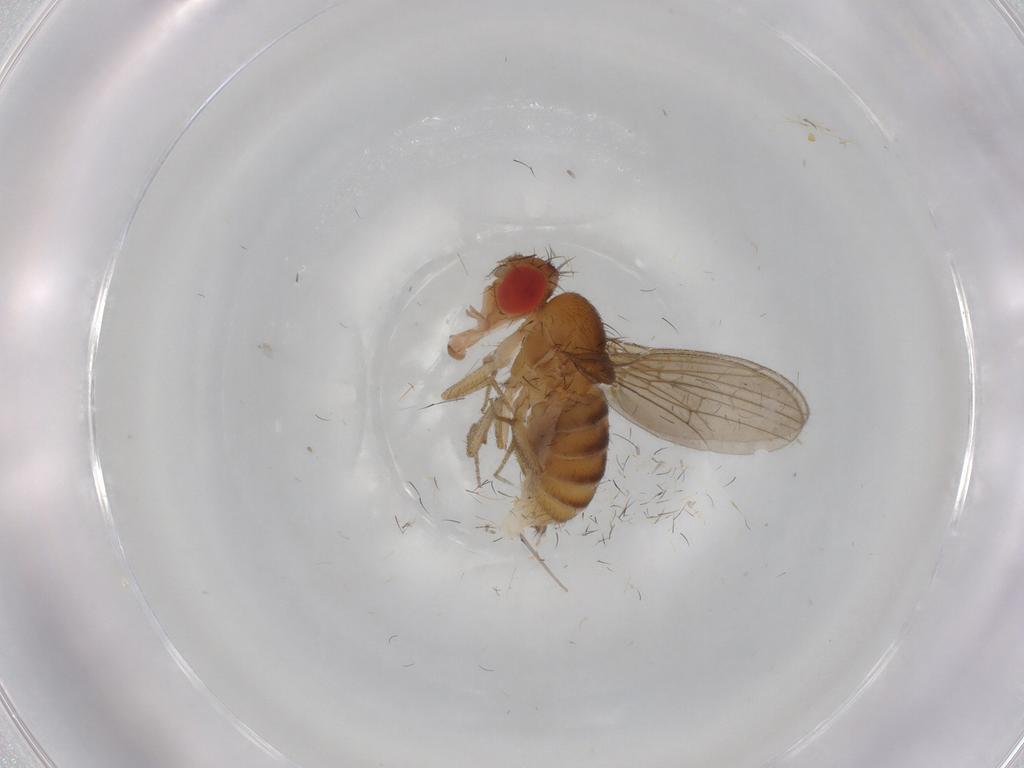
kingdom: Animalia
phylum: Arthropoda
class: Insecta
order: Diptera
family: Drosophilidae
